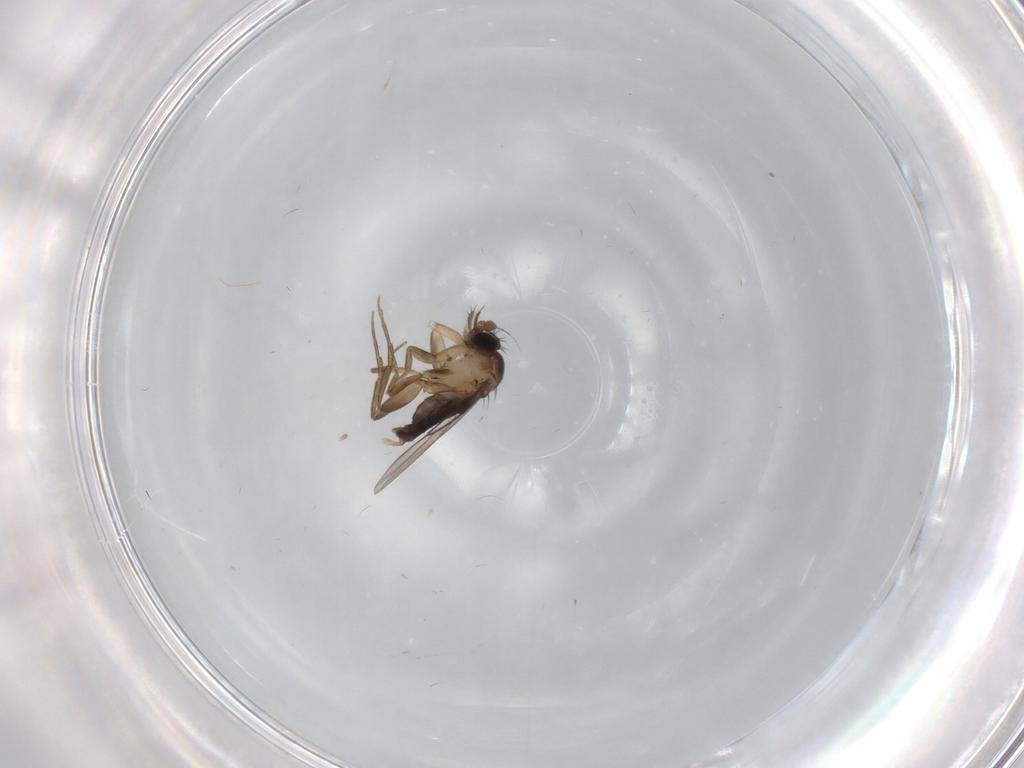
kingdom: Animalia
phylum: Arthropoda
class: Insecta
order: Diptera
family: Cecidomyiidae
